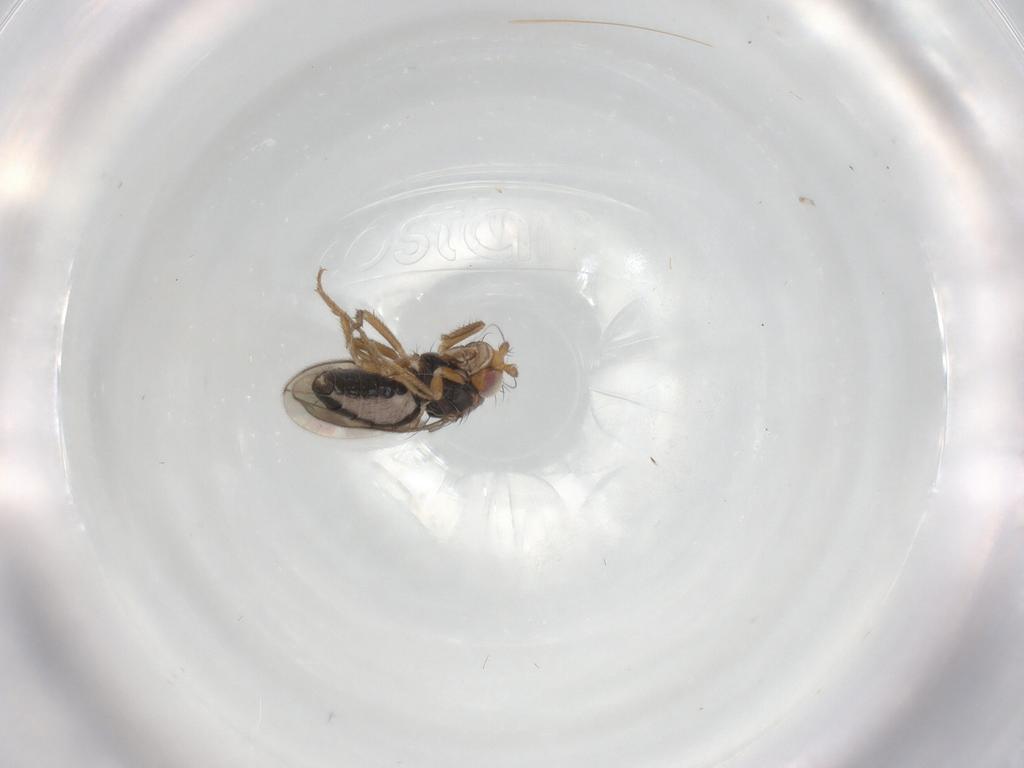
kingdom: Animalia
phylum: Arthropoda
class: Insecta
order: Diptera
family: Sphaeroceridae
